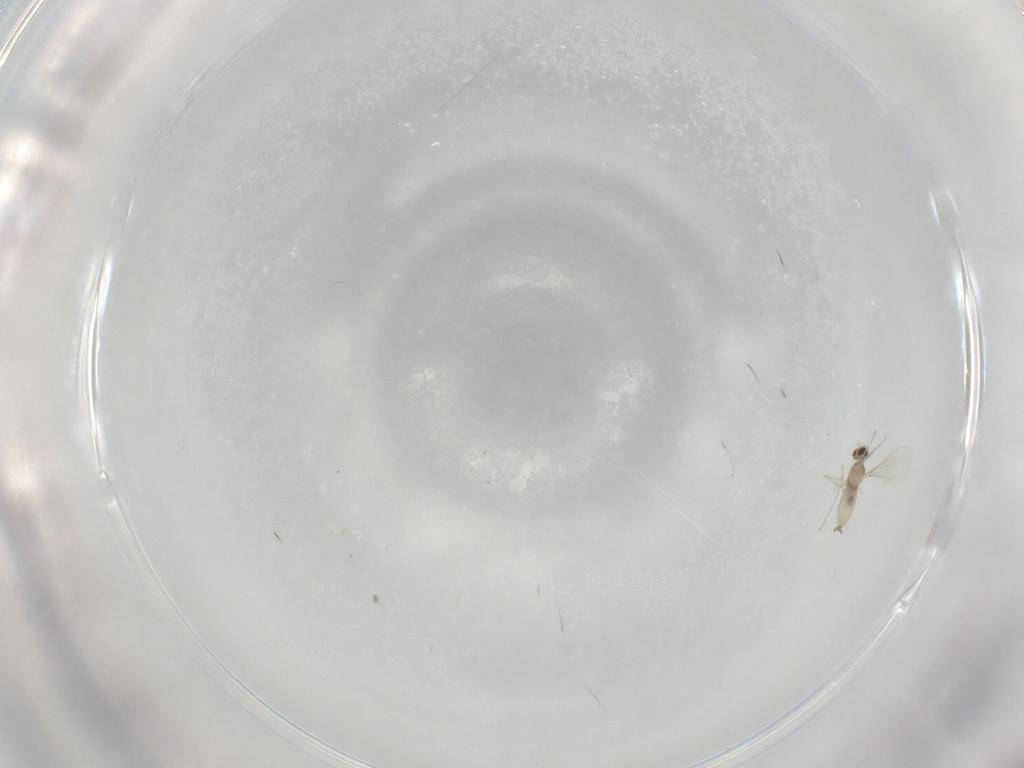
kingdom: Animalia
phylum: Arthropoda
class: Insecta
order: Diptera
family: Cecidomyiidae
